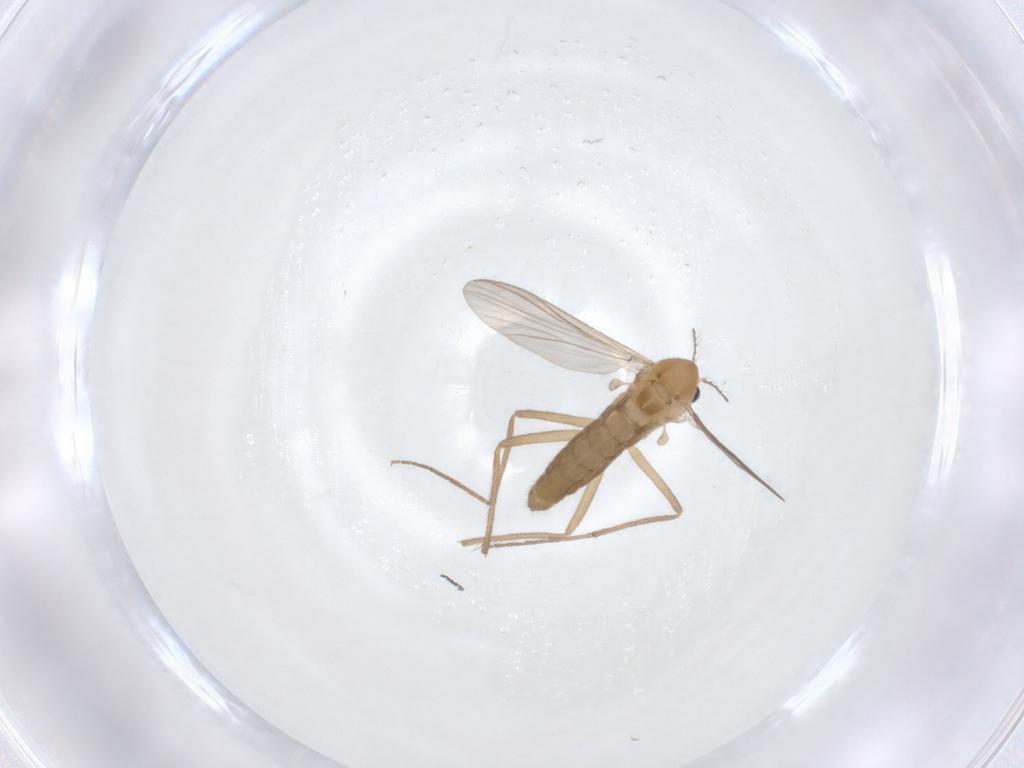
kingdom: Animalia
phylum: Arthropoda
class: Insecta
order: Diptera
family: Chironomidae
